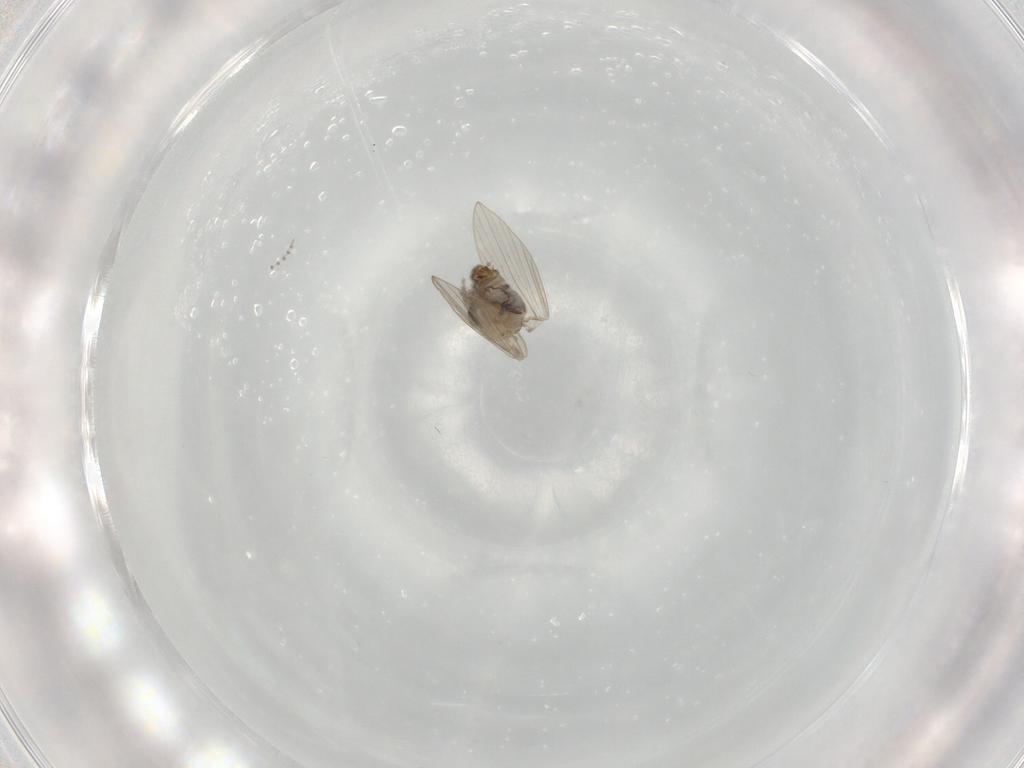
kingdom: Animalia
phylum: Arthropoda
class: Insecta
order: Diptera
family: Psychodidae
